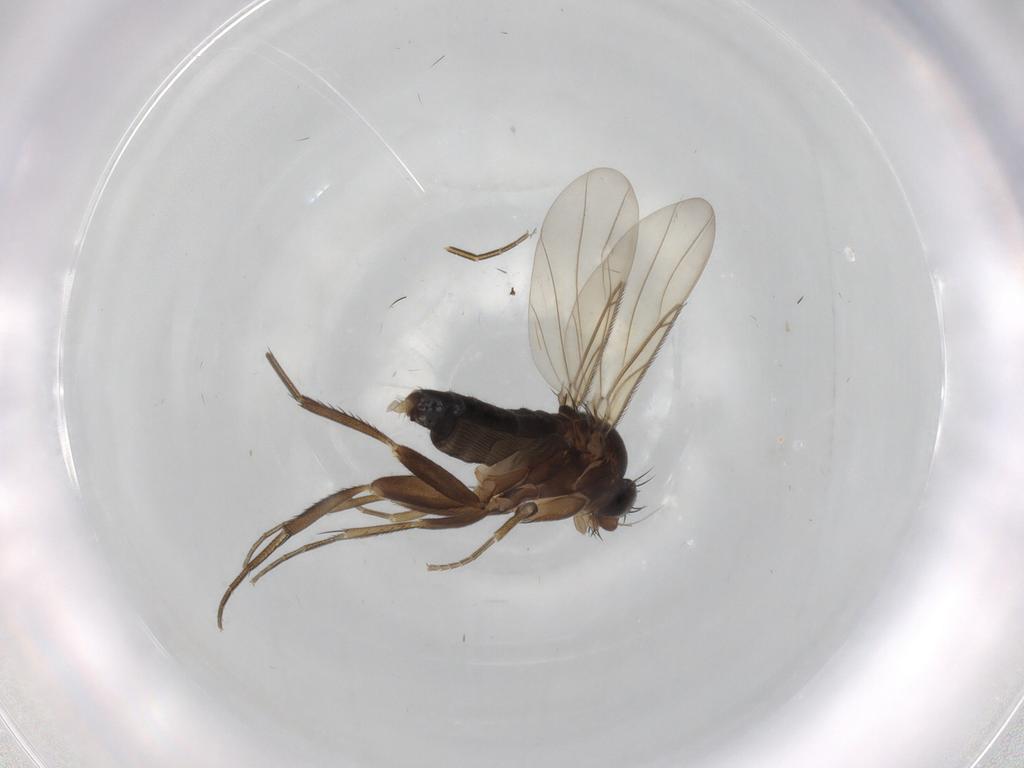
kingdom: Animalia
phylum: Arthropoda
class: Insecta
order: Diptera
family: Phoridae
